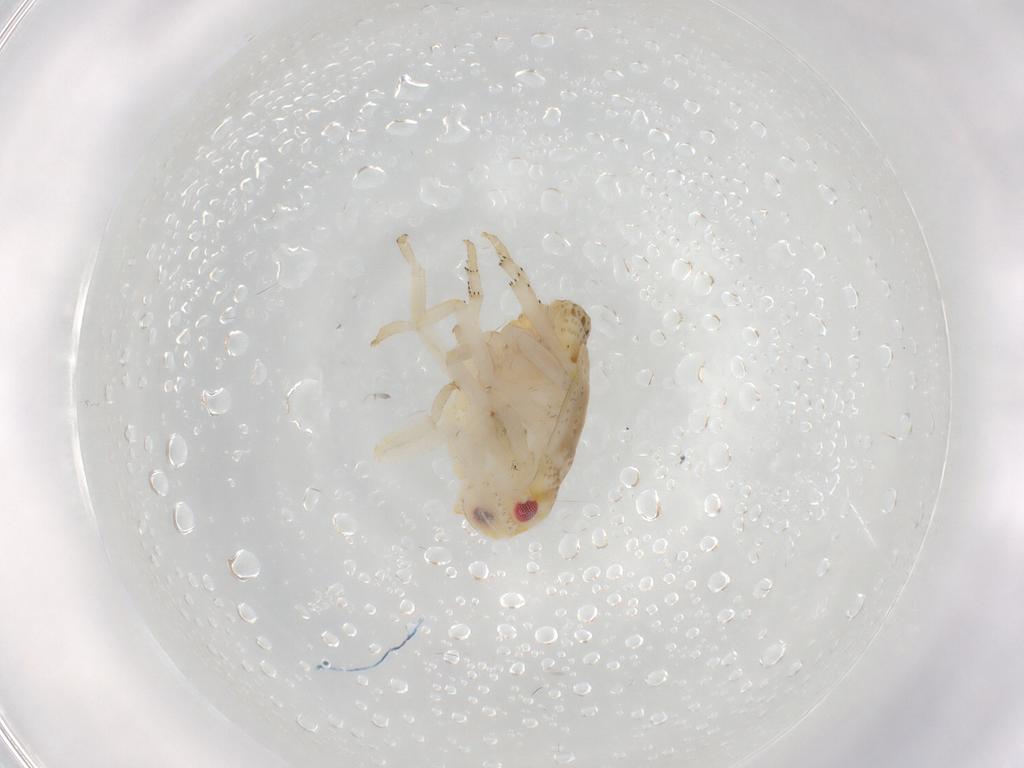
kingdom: Animalia
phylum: Arthropoda
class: Insecta
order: Hemiptera
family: Flatidae
